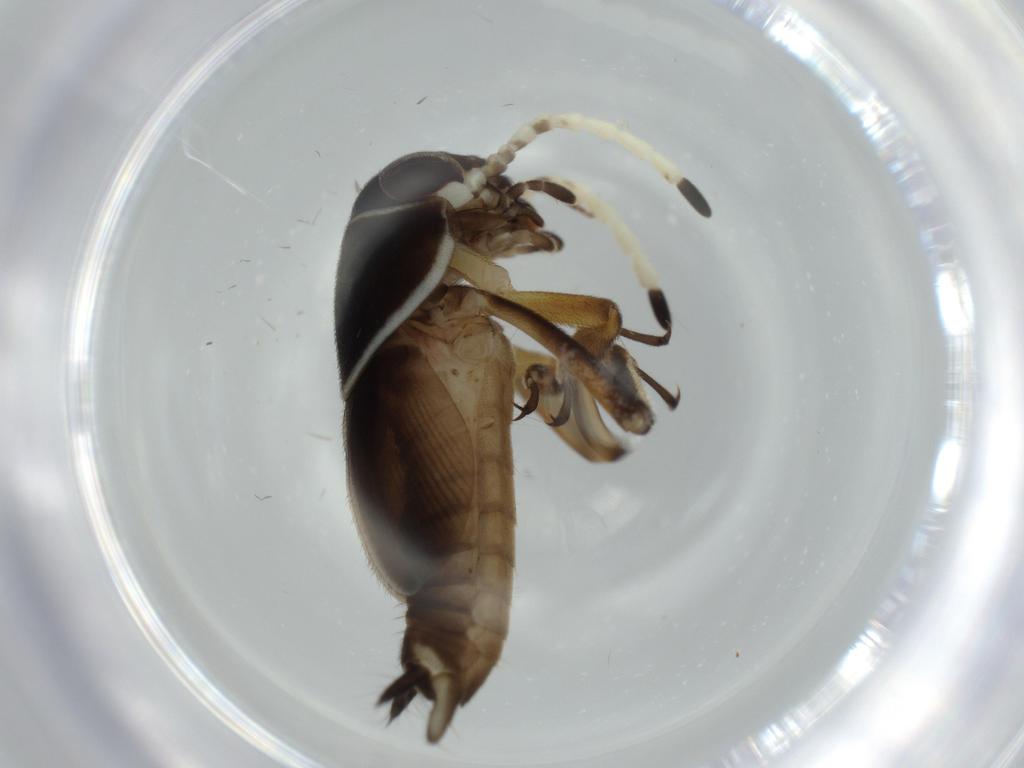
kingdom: Animalia
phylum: Arthropoda
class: Insecta
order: Orthoptera
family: Ripipterygidae
